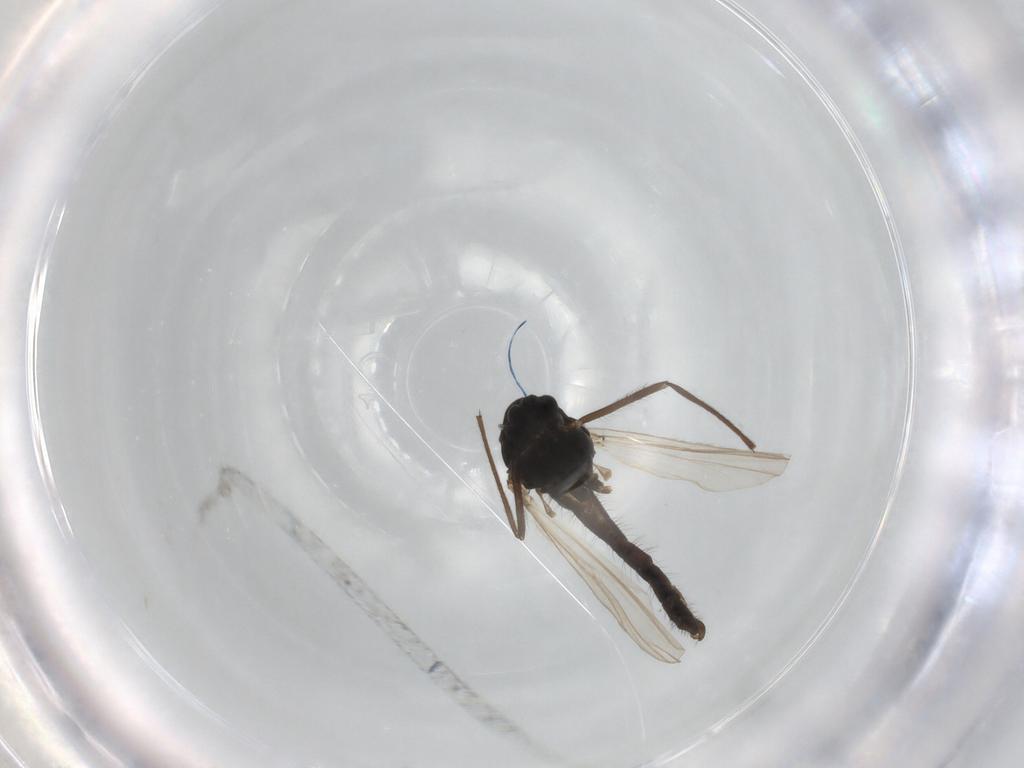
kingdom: Animalia
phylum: Arthropoda
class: Insecta
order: Diptera
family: Chironomidae
